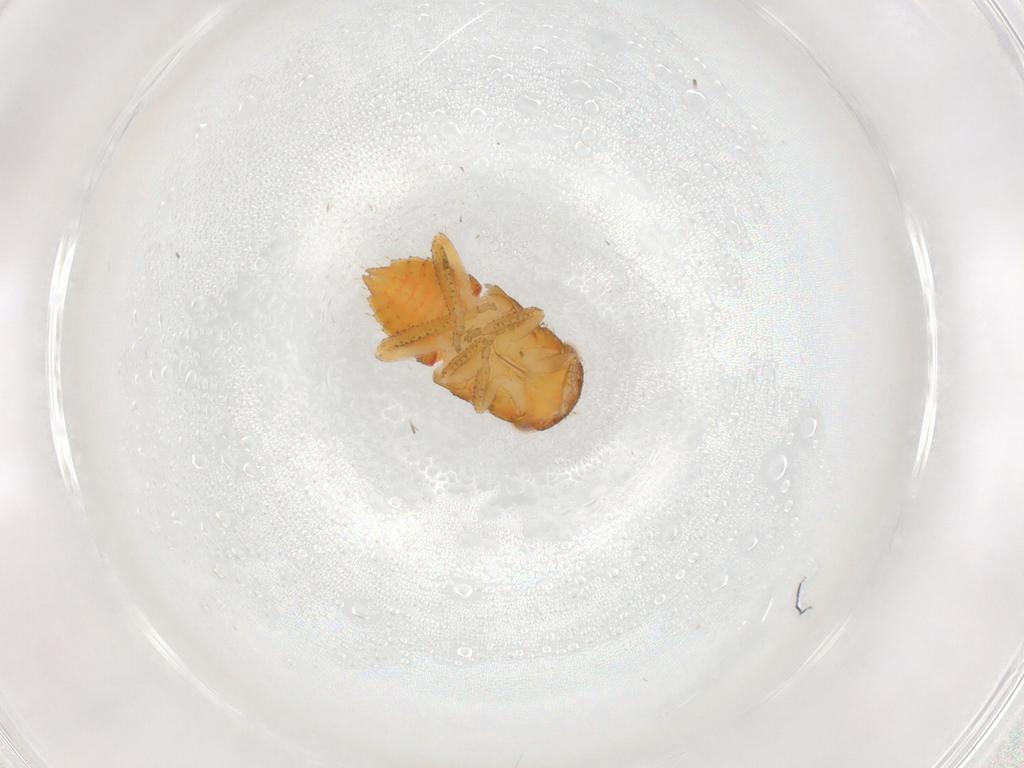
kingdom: Animalia
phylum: Arthropoda
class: Insecta
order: Hemiptera
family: Cicadellidae
